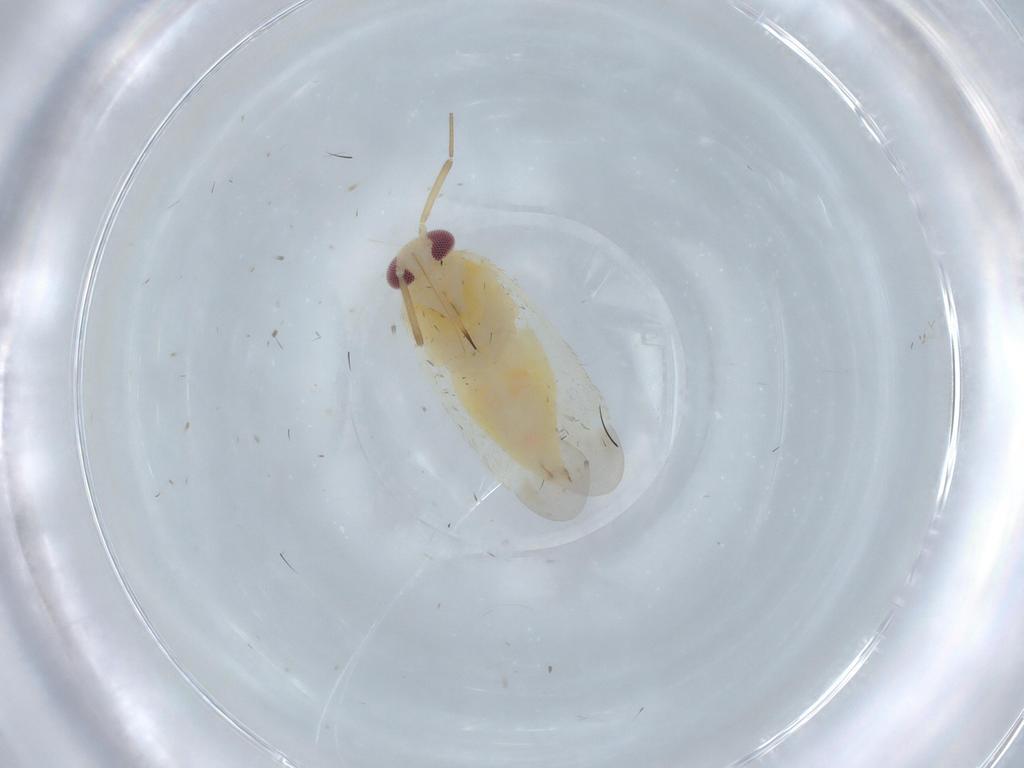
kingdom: Animalia
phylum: Arthropoda
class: Insecta
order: Hemiptera
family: Miridae
